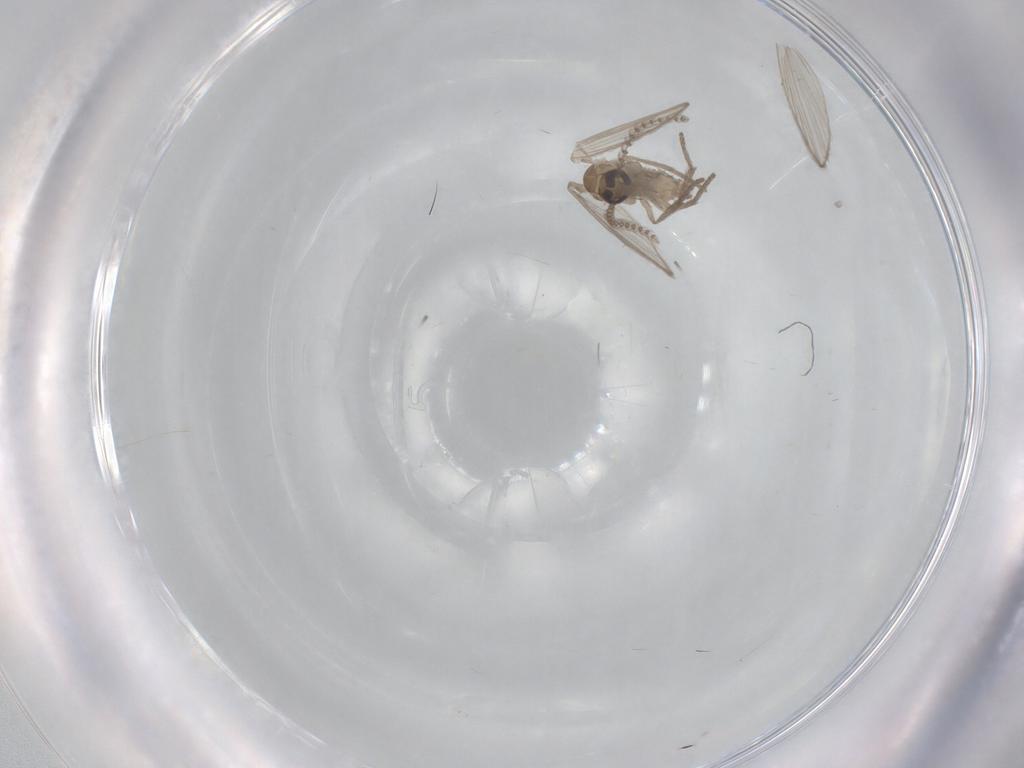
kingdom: Animalia
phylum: Arthropoda
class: Insecta
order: Diptera
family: Psychodidae
